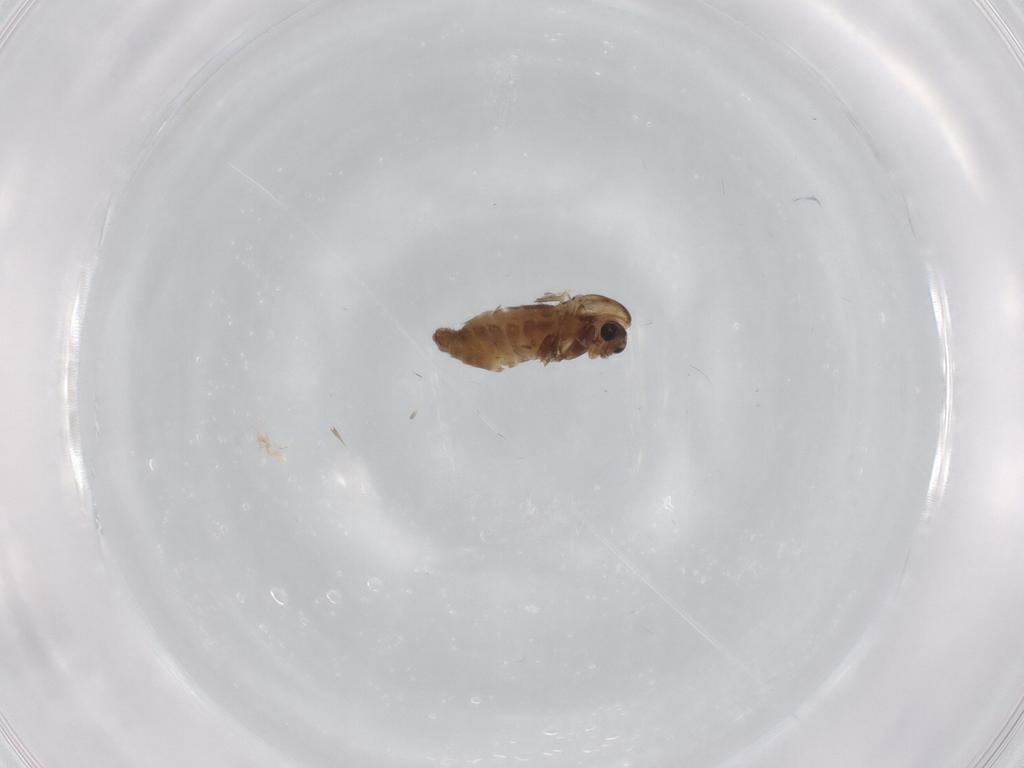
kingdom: Animalia
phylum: Arthropoda
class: Insecta
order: Diptera
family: Chironomidae
